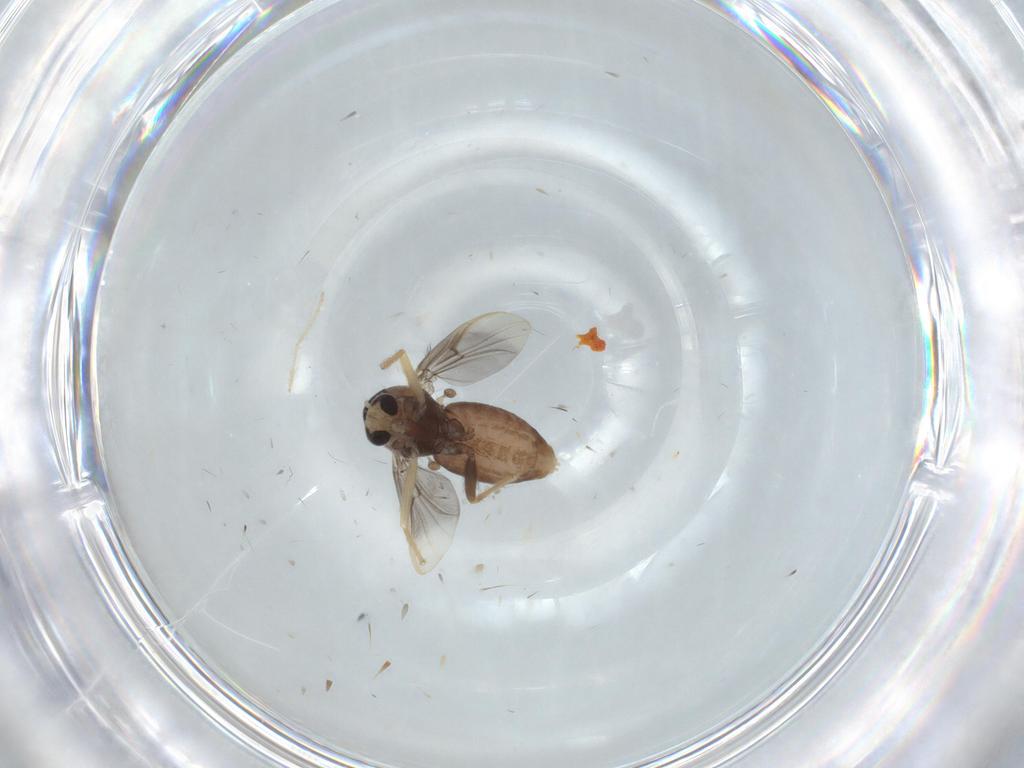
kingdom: Animalia
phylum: Arthropoda
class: Insecta
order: Diptera
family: Chironomidae
